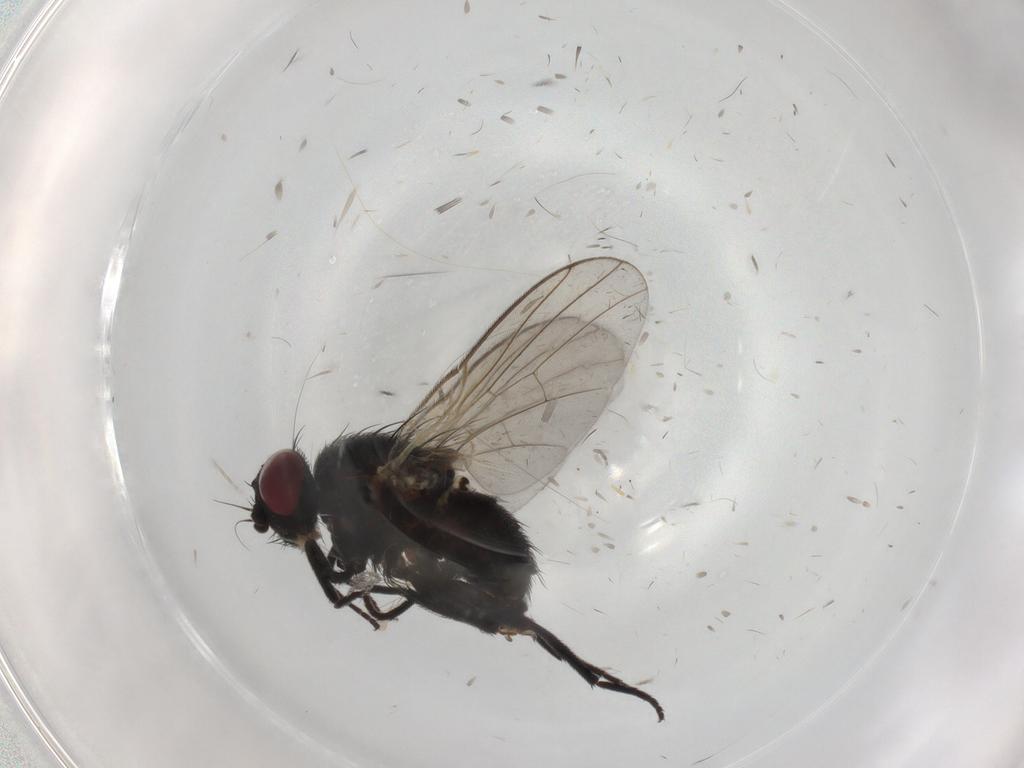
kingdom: Animalia
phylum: Arthropoda
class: Insecta
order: Diptera
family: Agromyzidae
